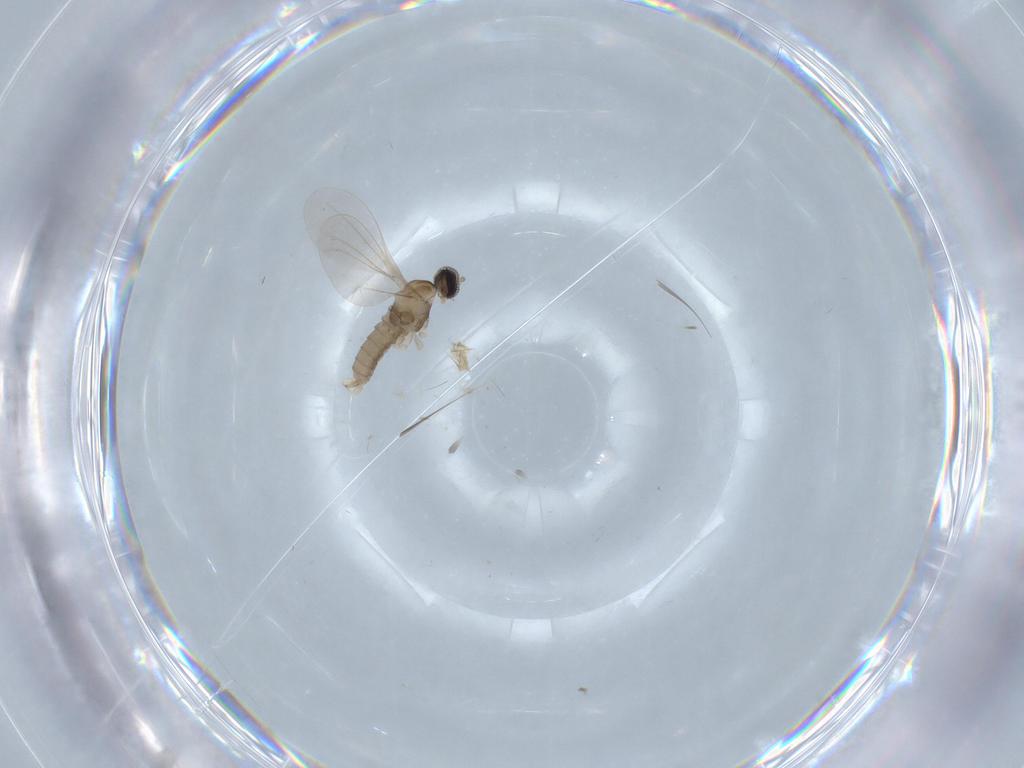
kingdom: Animalia
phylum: Arthropoda
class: Insecta
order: Diptera
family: Cecidomyiidae
